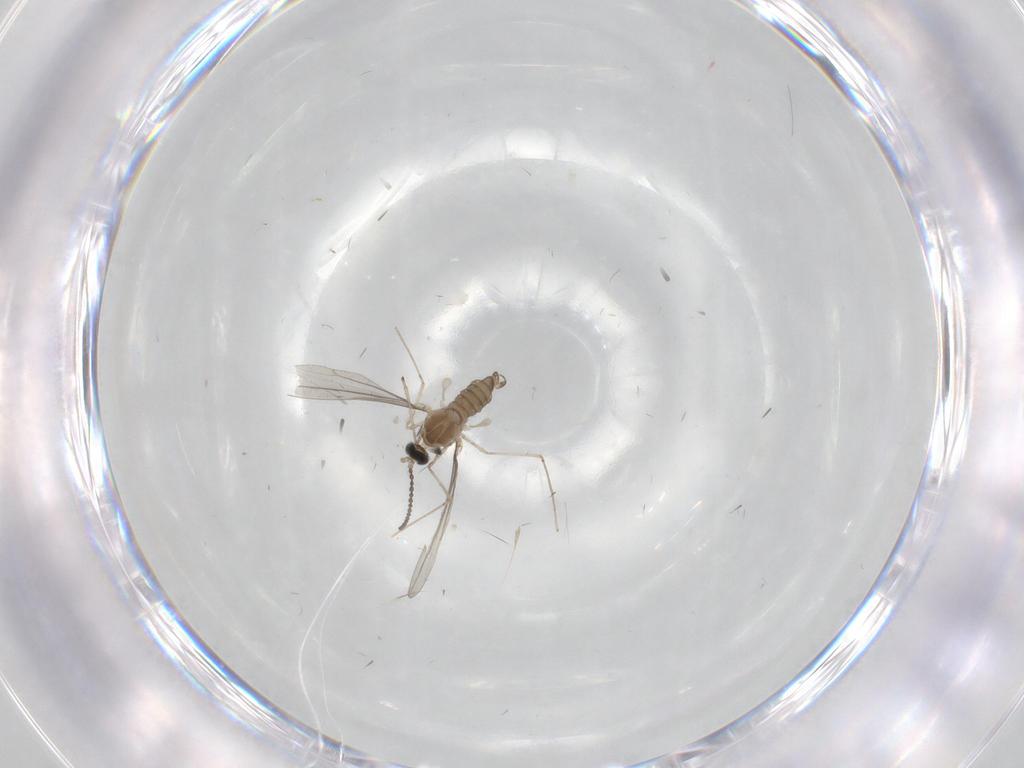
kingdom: Animalia
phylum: Arthropoda
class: Insecta
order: Diptera
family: Cecidomyiidae
